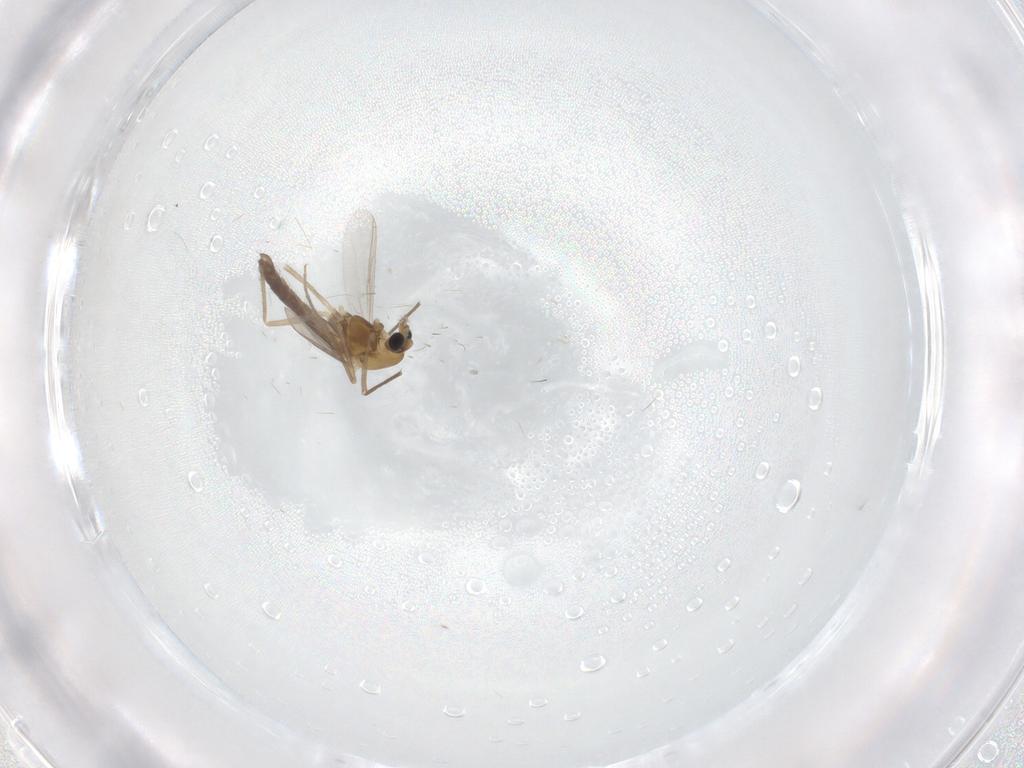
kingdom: Animalia
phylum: Arthropoda
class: Insecta
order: Diptera
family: Chironomidae
